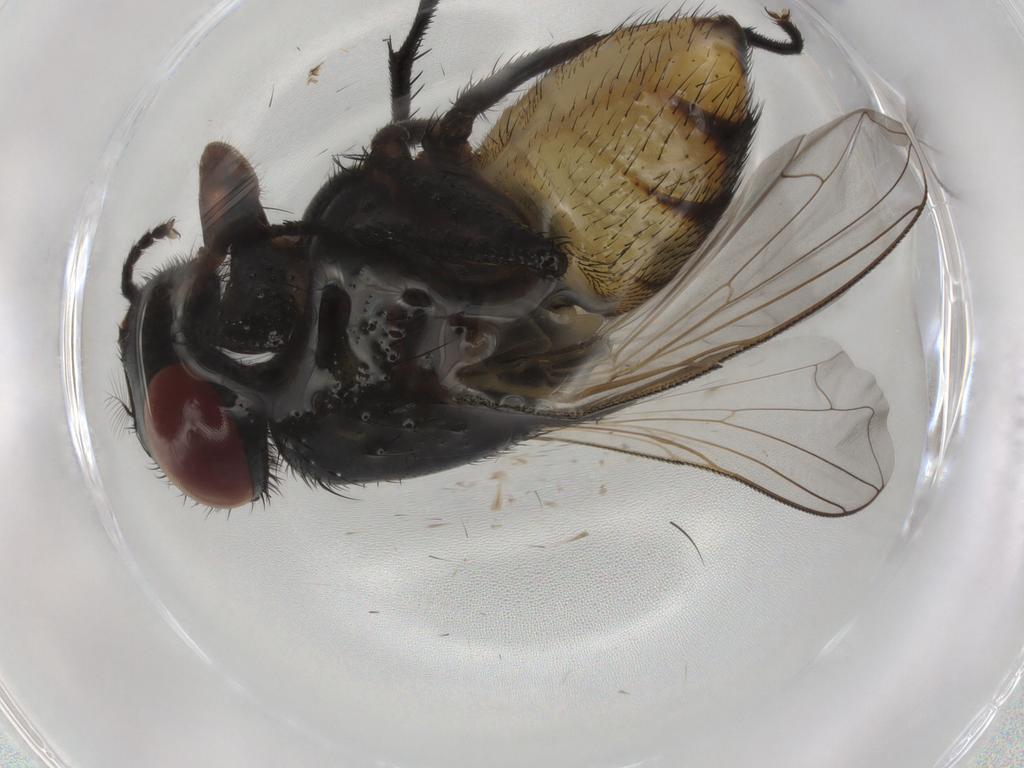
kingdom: Animalia
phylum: Arthropoda
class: Insecta
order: Diptera
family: Muscidae
